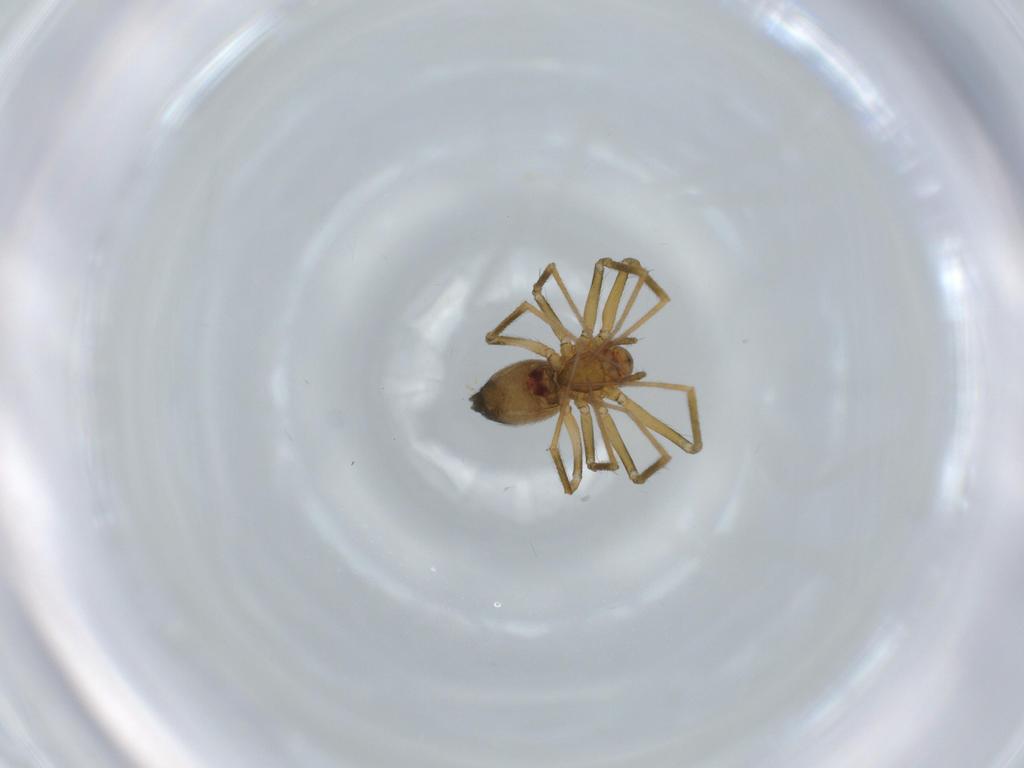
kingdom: Animalia
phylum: Arthropoda
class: Arachnida
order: Araneae
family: Linyphiidae
